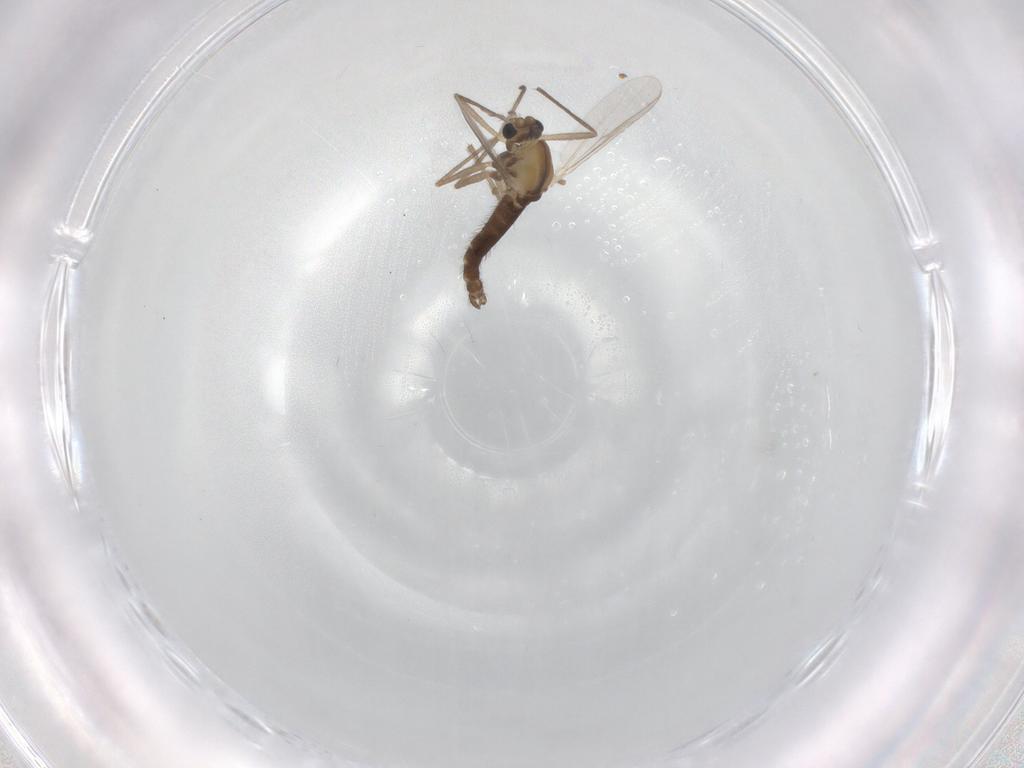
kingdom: Animalia
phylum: Arthropoda
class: Insecta
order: Diptera
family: Chironomidae
